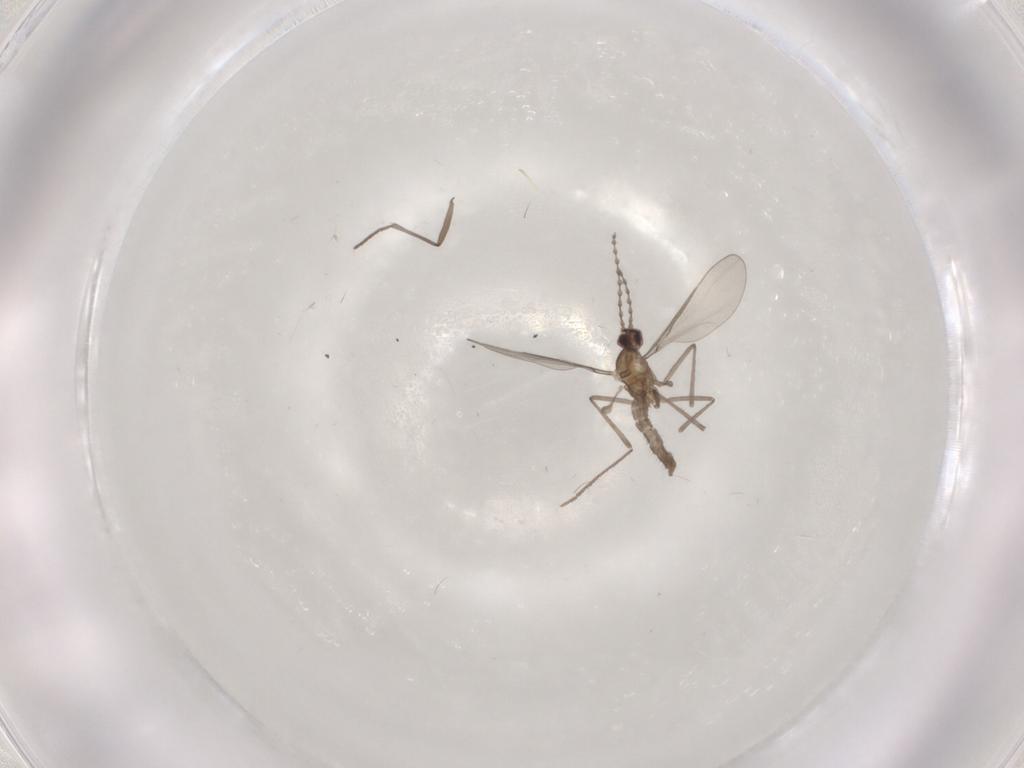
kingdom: Animalia
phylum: Arthropoda
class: Insecta
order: Diptera
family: Cecidomyiidae
